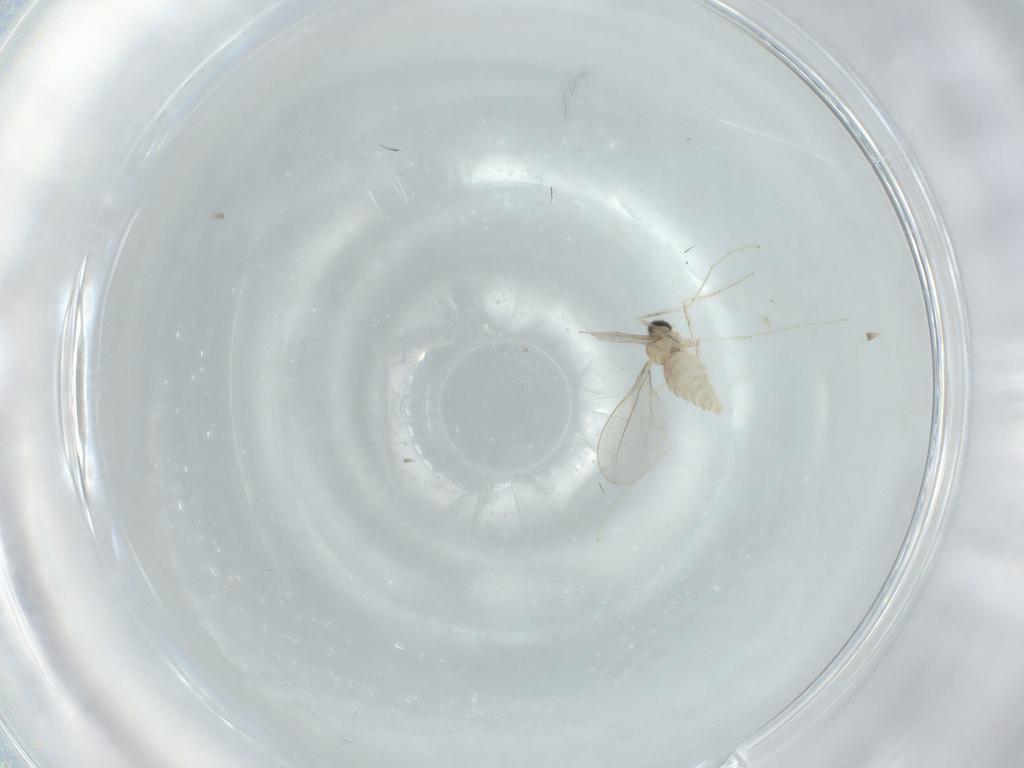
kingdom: Animalia
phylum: Arthropoda
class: Insecta
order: Diptera
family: Cecidomyiidae
